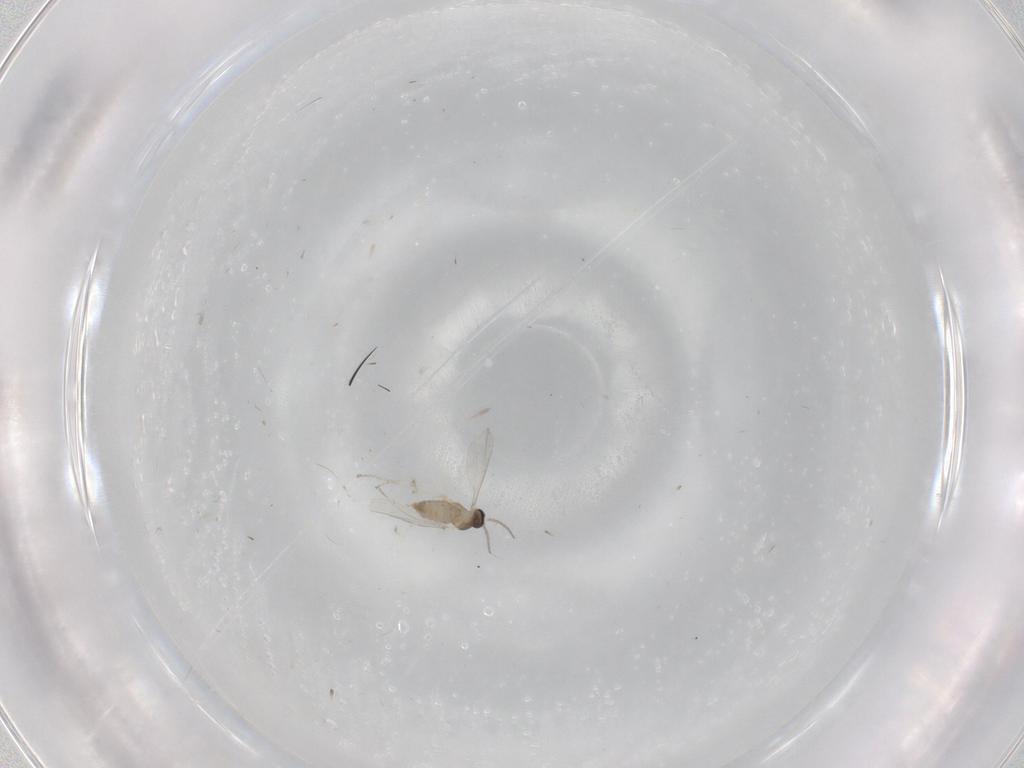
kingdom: Animalia
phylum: Arthropoda
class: Insecta
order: Diptera
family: Cecidomyiidae
